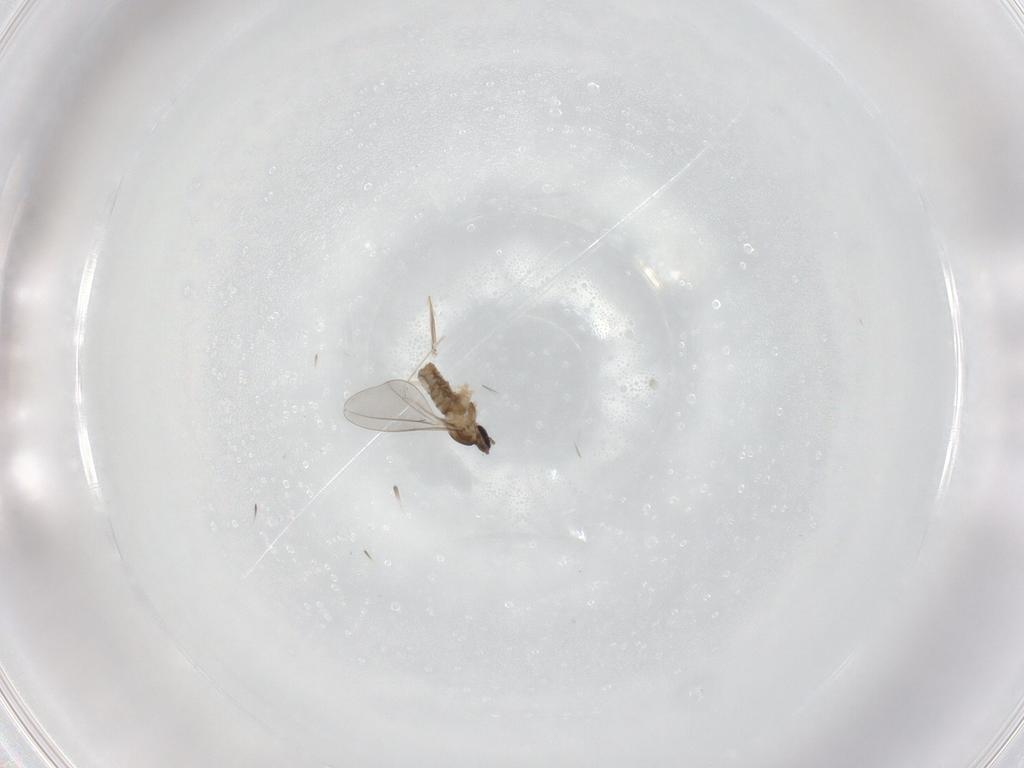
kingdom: Animalia
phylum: Arthropoda
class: Insecta
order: Diptera
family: Cecidomyiidae
